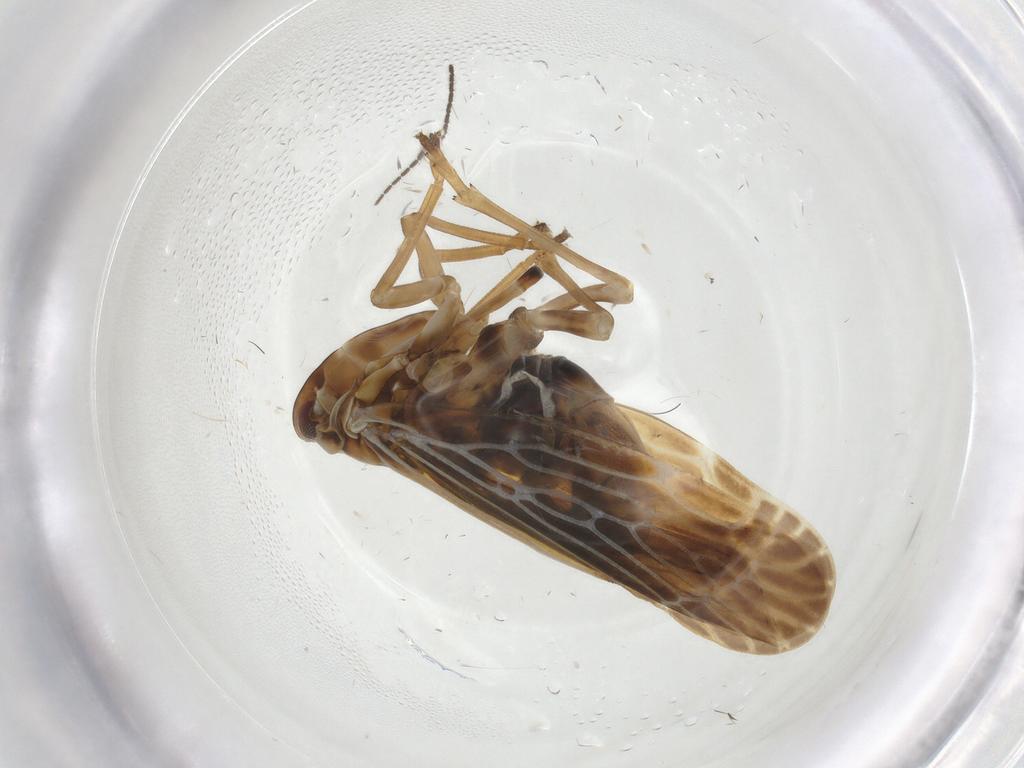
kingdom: Animalia
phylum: Arthropoda
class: Insecta
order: Hemiptera
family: Derbidae
